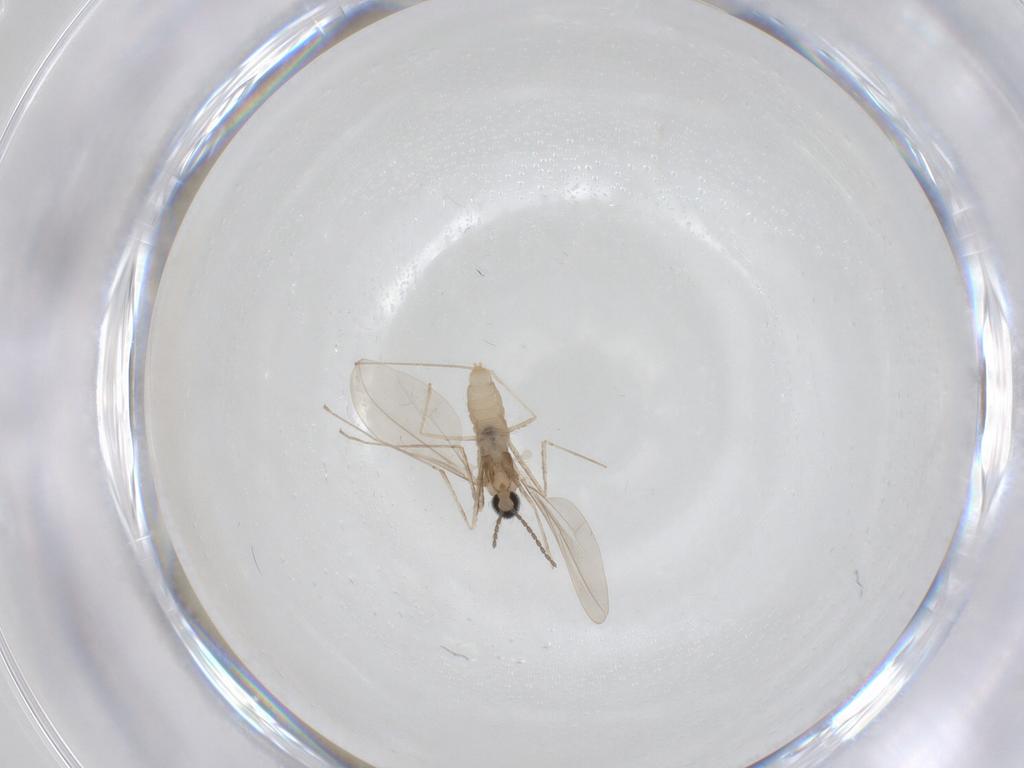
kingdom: Animalia
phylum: Arthropoda
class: Insecta
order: Diptera
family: Cecidomyiidae
